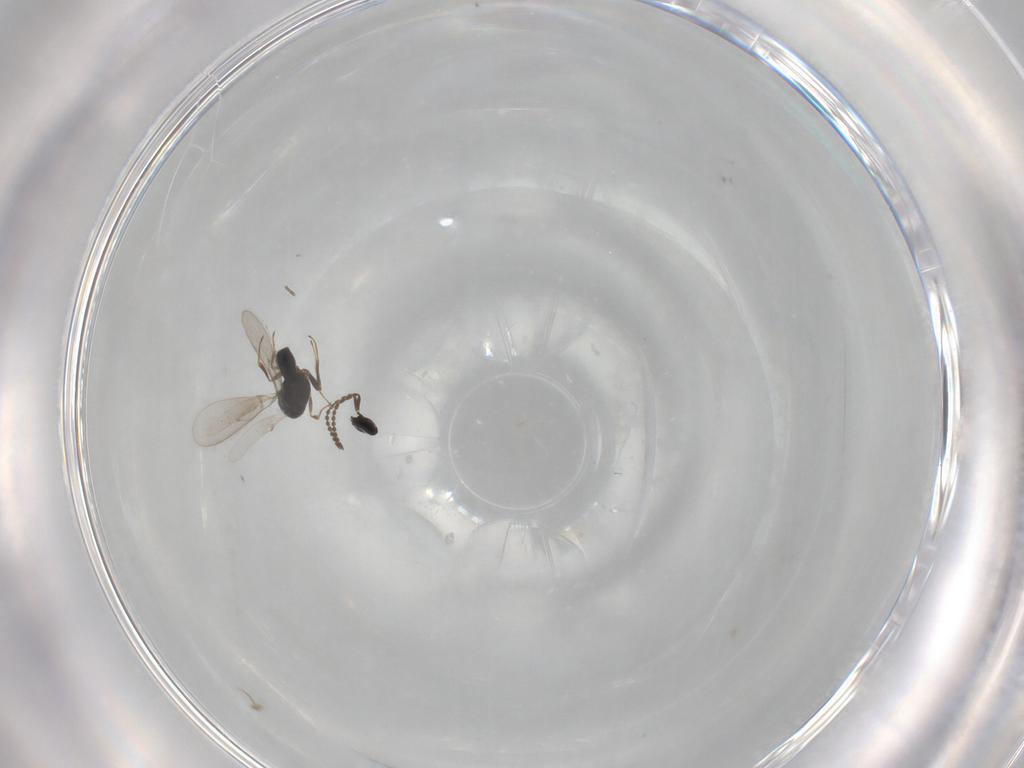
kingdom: Animalia
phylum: Arthropoda
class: Insecta
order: Hymenoptera
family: Scelionidae
